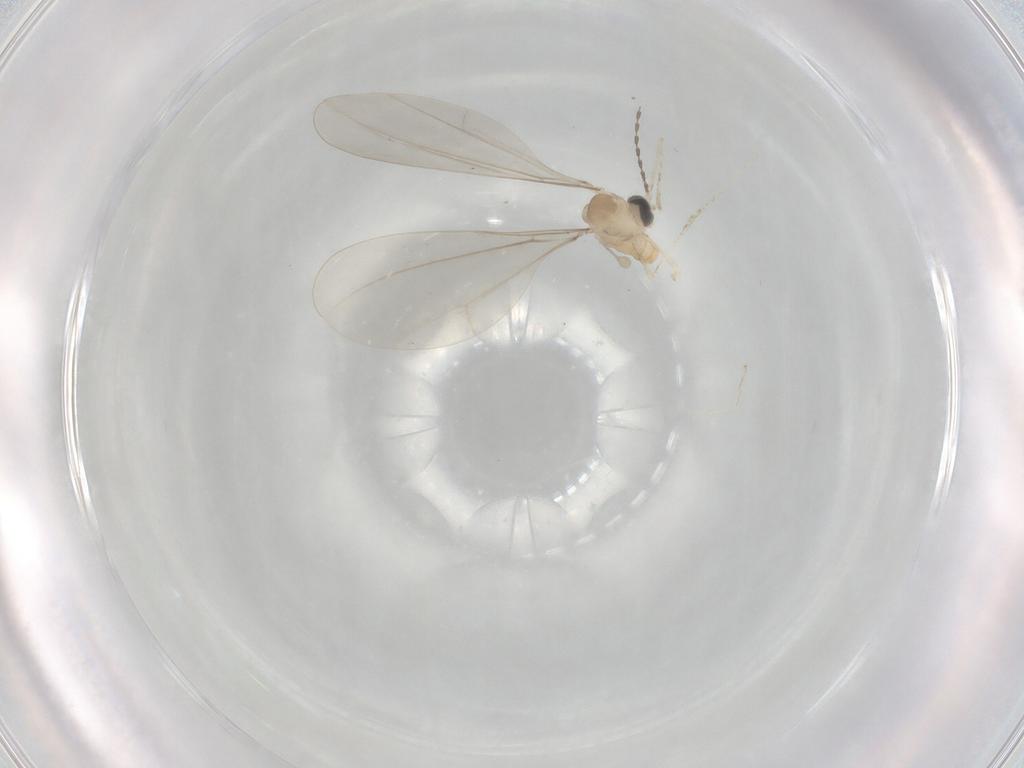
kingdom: Animalia
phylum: Arthropoda
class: Insecta
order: Diptera
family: Cecidomyiidae
